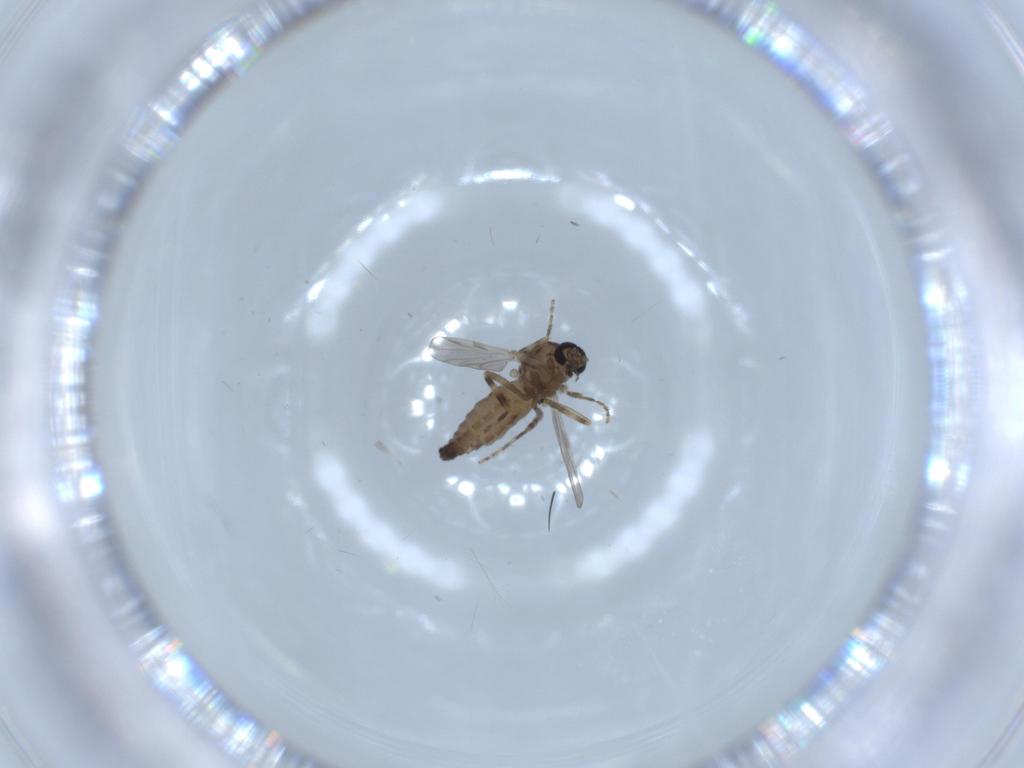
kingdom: Animalia
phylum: Arthropoda
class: Insecta
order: Diptera
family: Ceratopogonidae
